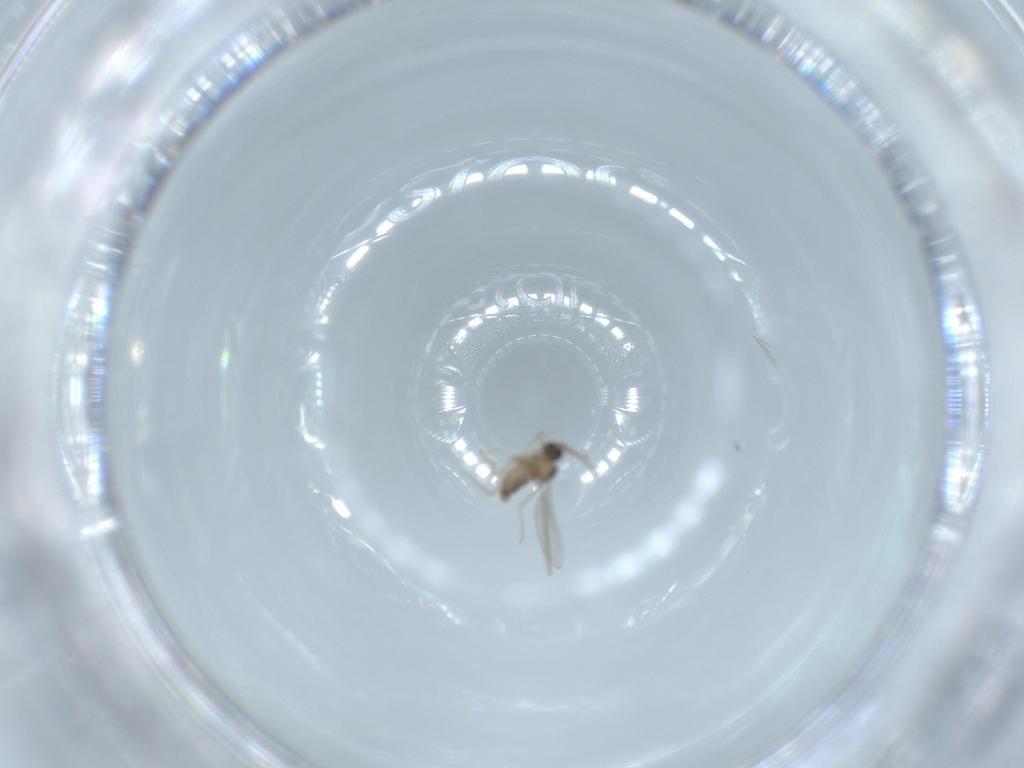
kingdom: Animalia
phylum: Arthropoda
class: Insecta
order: Diptera
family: Cecidomyiidae
